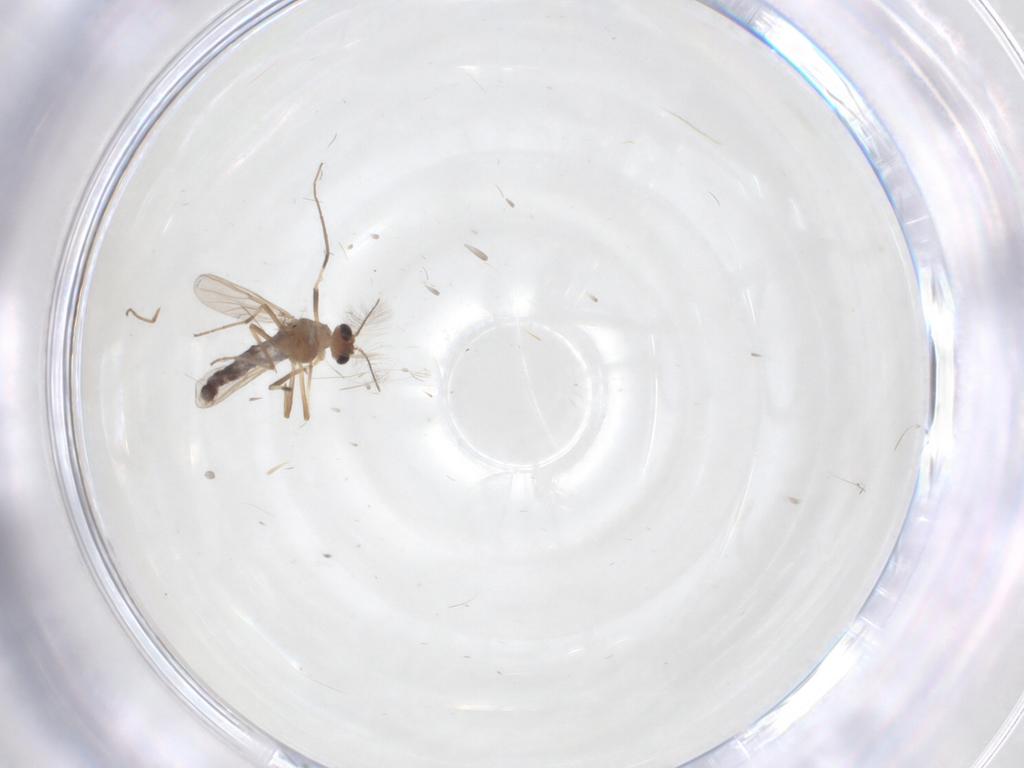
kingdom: Animalia
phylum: Arthropoda
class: Insecta
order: Diptera
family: Chironomidae
